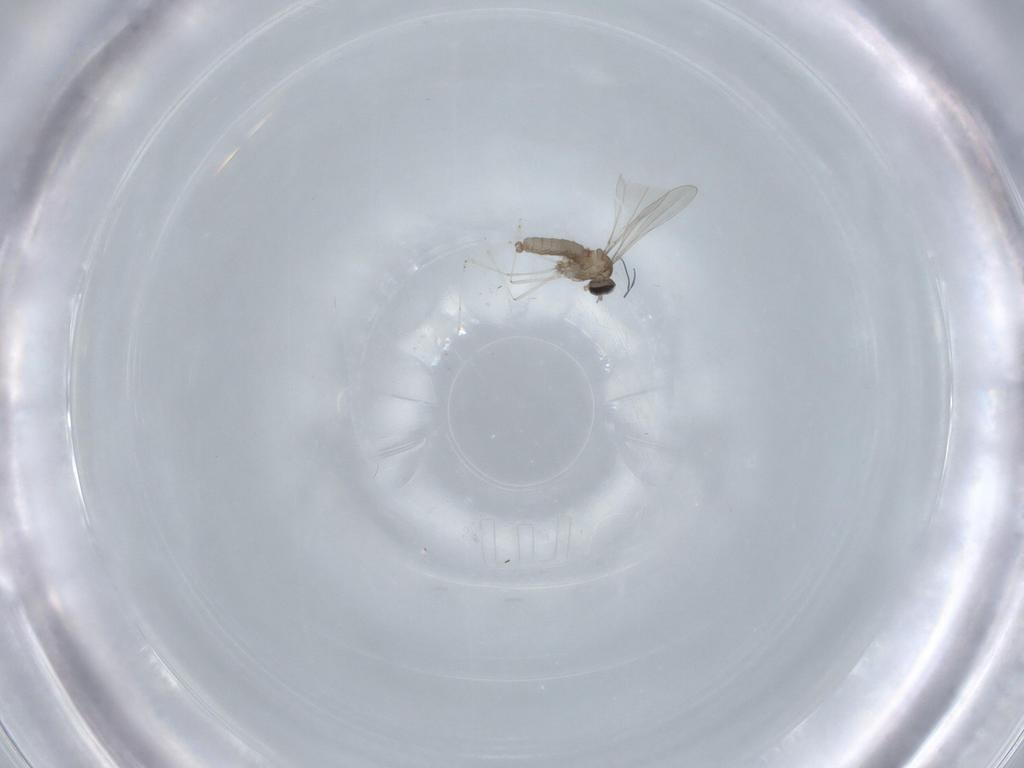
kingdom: Animalia
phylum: Arthropoda
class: Insecta
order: Diptera
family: Cecidomyiidae
